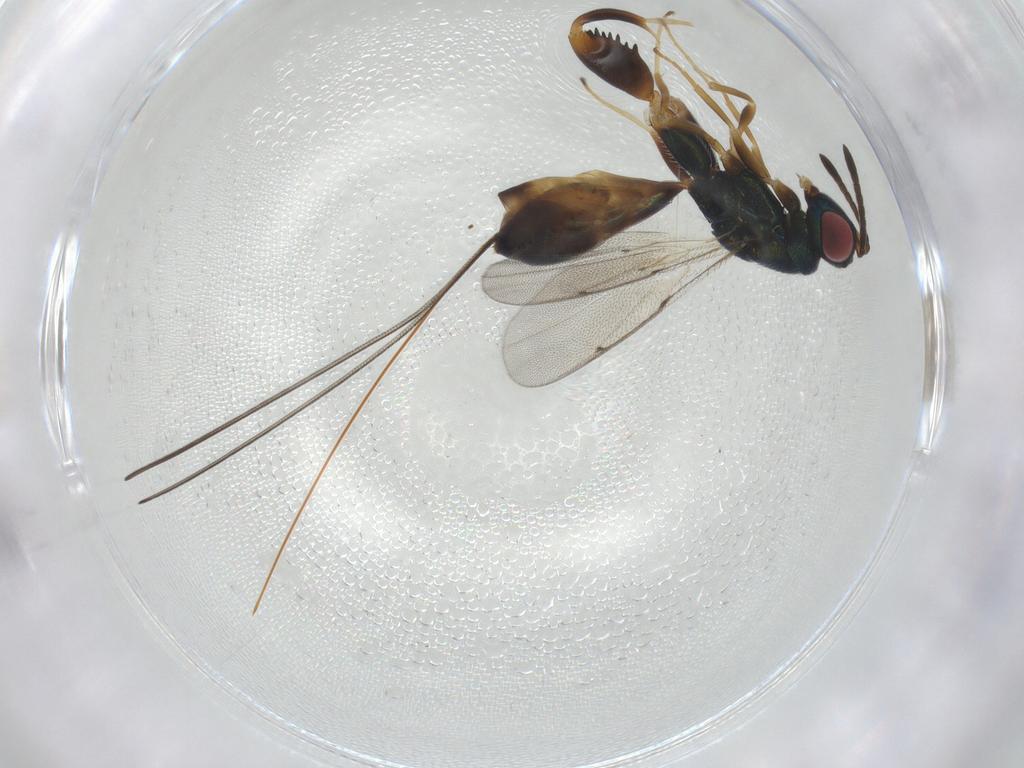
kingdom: Animalia
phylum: Arthropoda
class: Insecta
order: Hymenoptera
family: Torymidae
